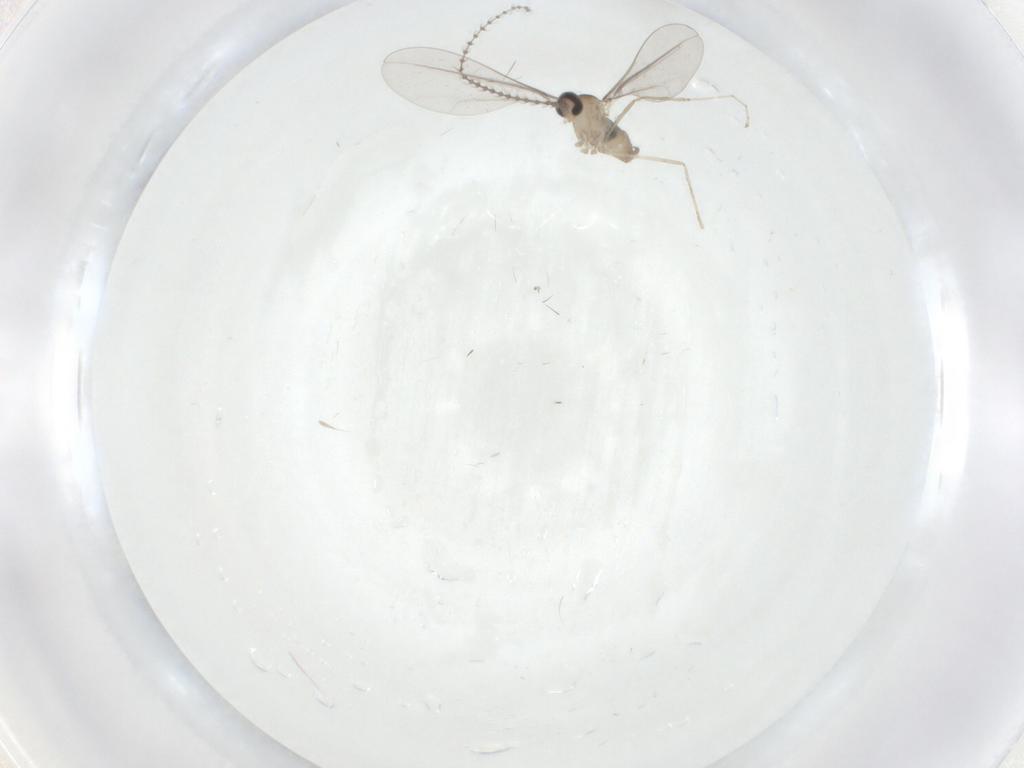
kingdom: Animalia
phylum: Arthropoda
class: Insecta
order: Diptera
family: Cecidomyiidae
